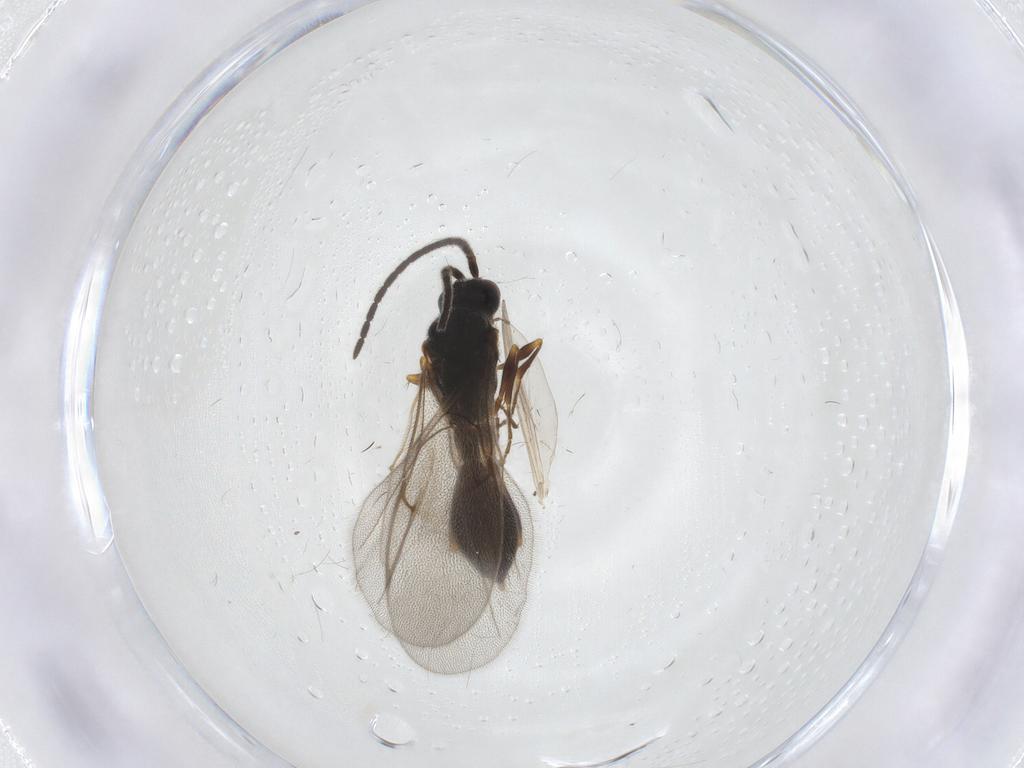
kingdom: Animalia
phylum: Arthropoda
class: Insecta
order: Hymenoptera
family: Diapriidae
